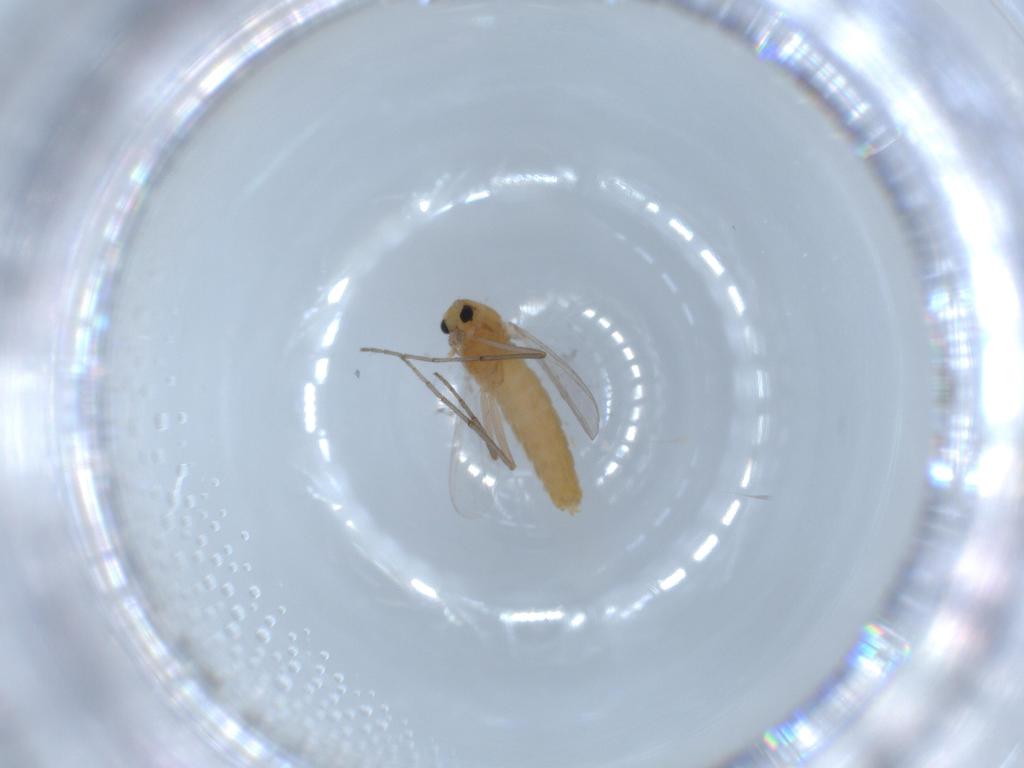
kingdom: Animalia
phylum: Arthropoda
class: Insecta
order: Diptera
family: Chironomidae
